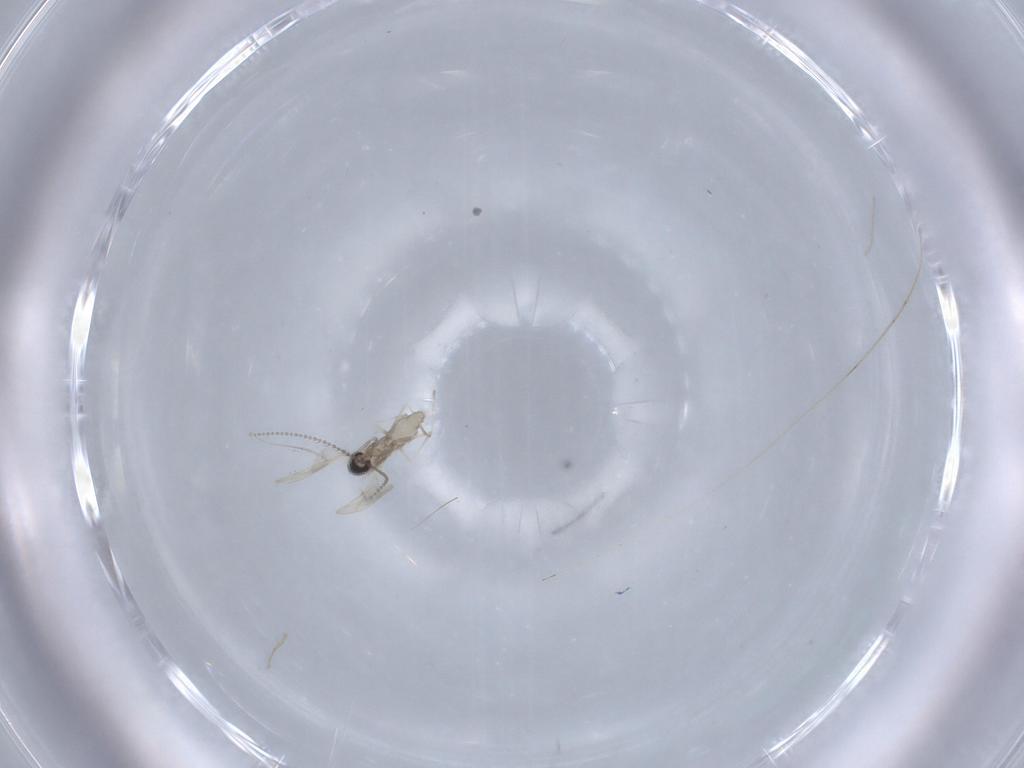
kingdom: Animalia
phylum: Arthropoda
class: Insecta
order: Diptera
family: Cecidomyiidae
